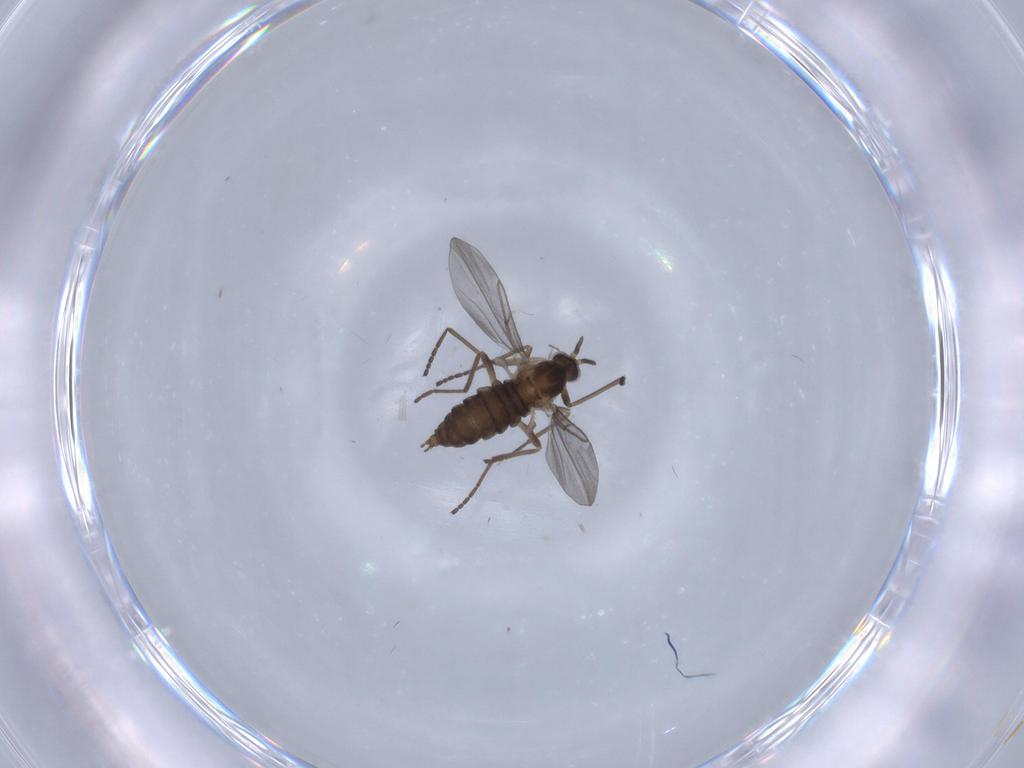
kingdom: Animalia
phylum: Arthropoda
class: Insecta
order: Diptera
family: Cecidomyiidae
